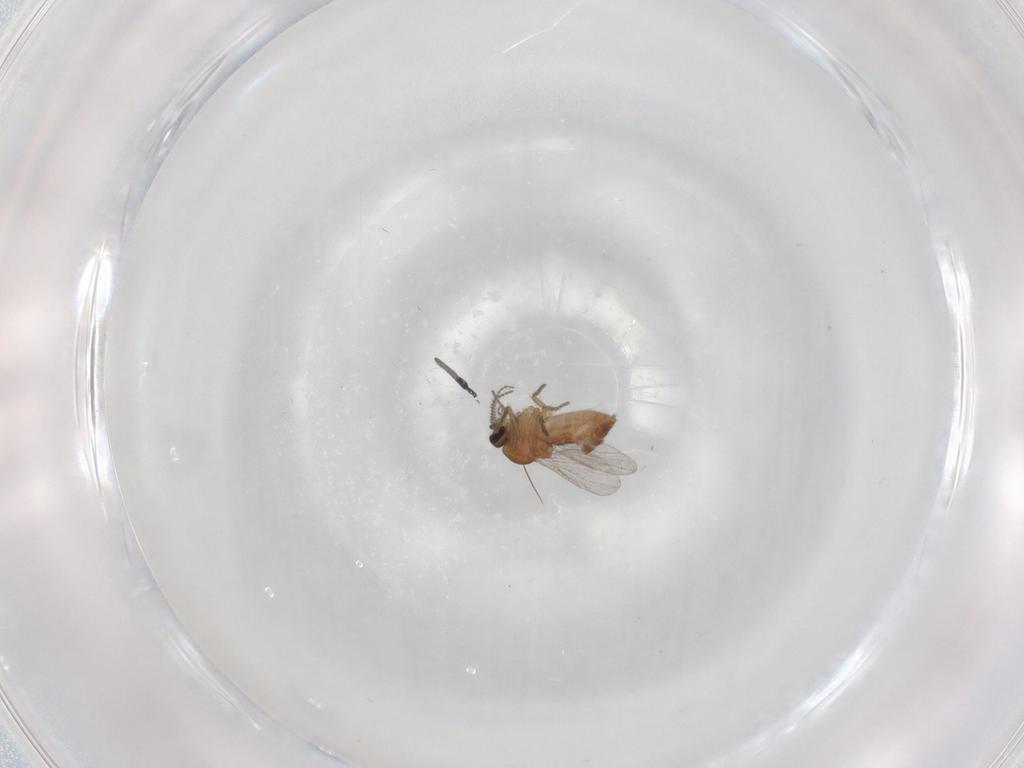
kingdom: Animalia
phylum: Arthropoda
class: Insecta
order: Diptera
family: Ceratopogonidae
